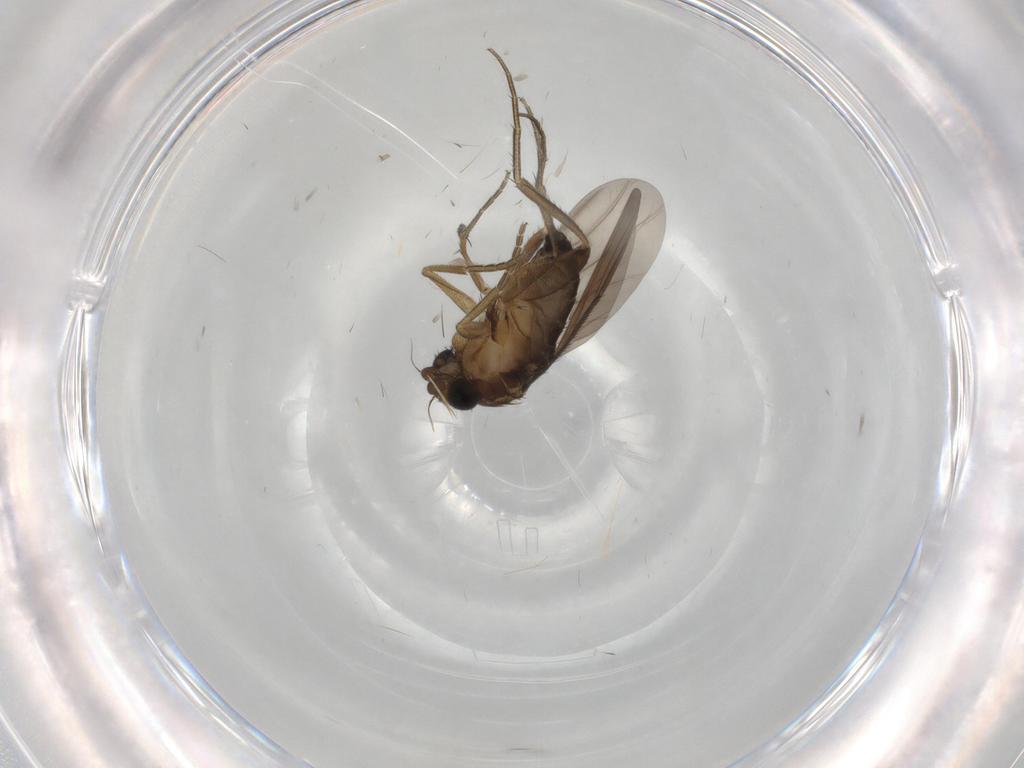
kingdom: Animalia
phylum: Arthropoda
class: Insecta
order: Diptera
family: Phoridae
